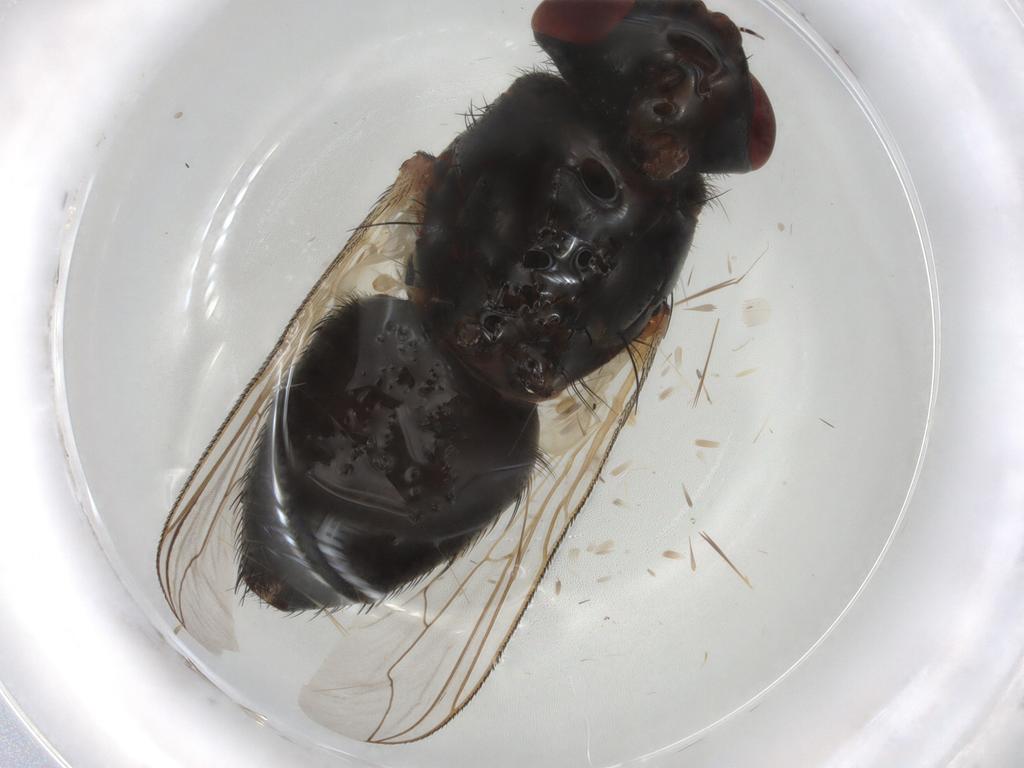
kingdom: Animalia
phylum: Arthropoda
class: Insecta
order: Diptera
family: Sarcophagidae
